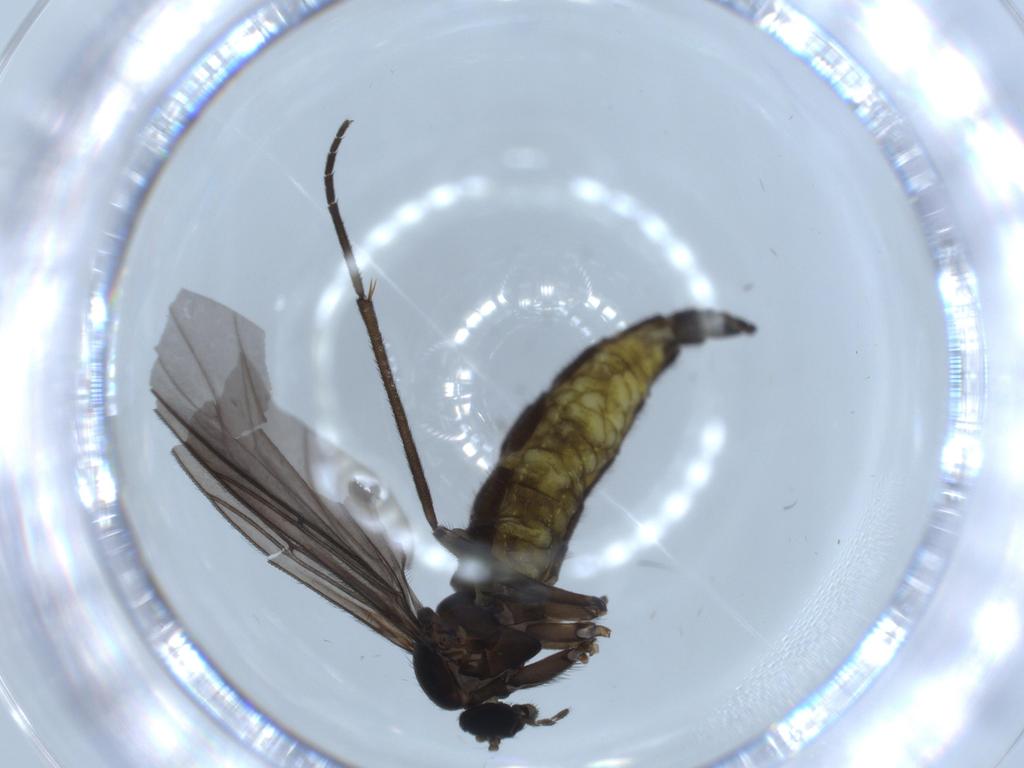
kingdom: Animalia
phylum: Arthropoda
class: Insecta
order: Diptera
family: Sciaridae
